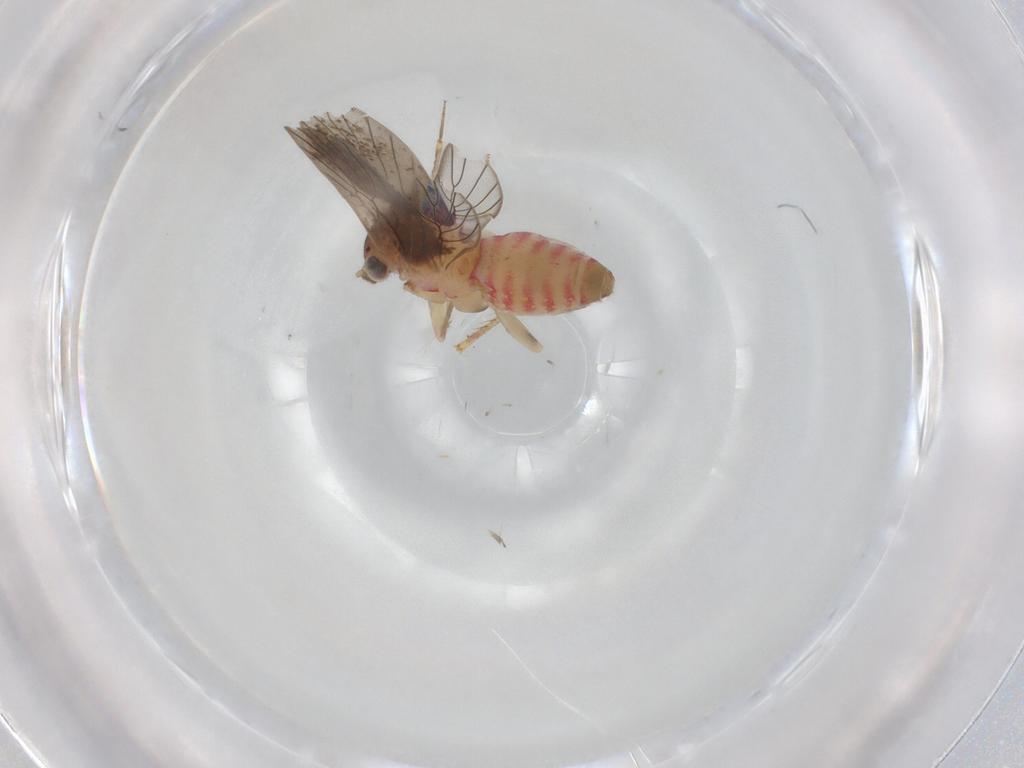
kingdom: Animalia
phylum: Arthropoda
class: Insecta
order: Psocodea
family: Lepidopsocidae
